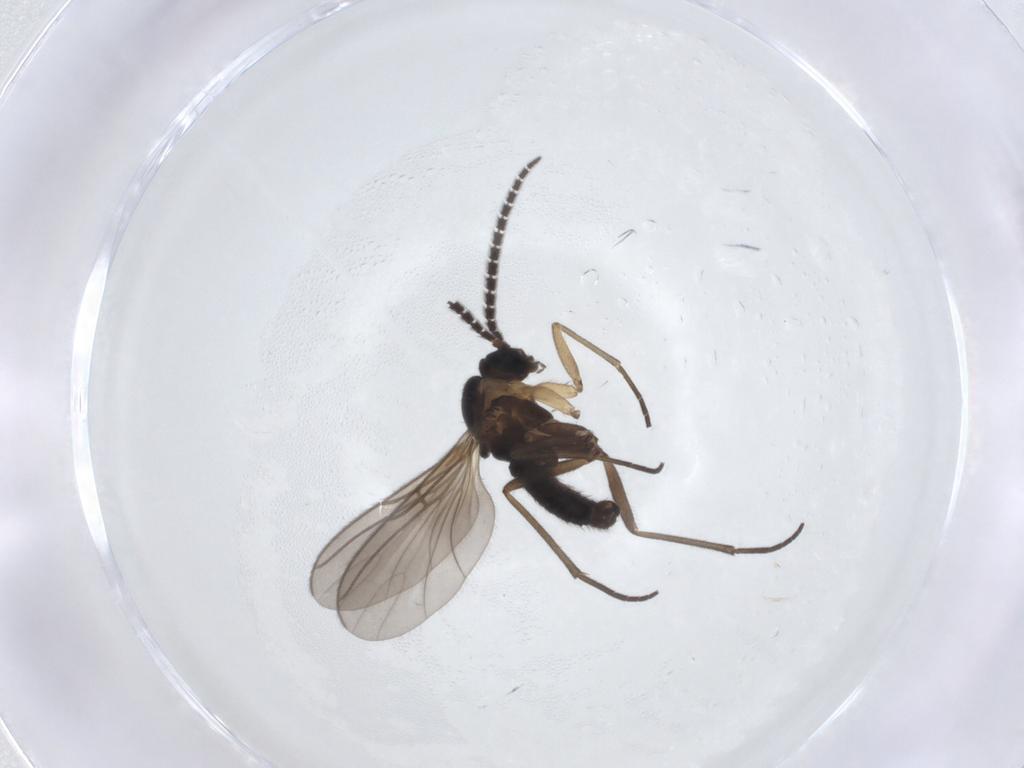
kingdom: Animalia
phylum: Arthropoda
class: Insecta
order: Diptera
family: Sciaridae
